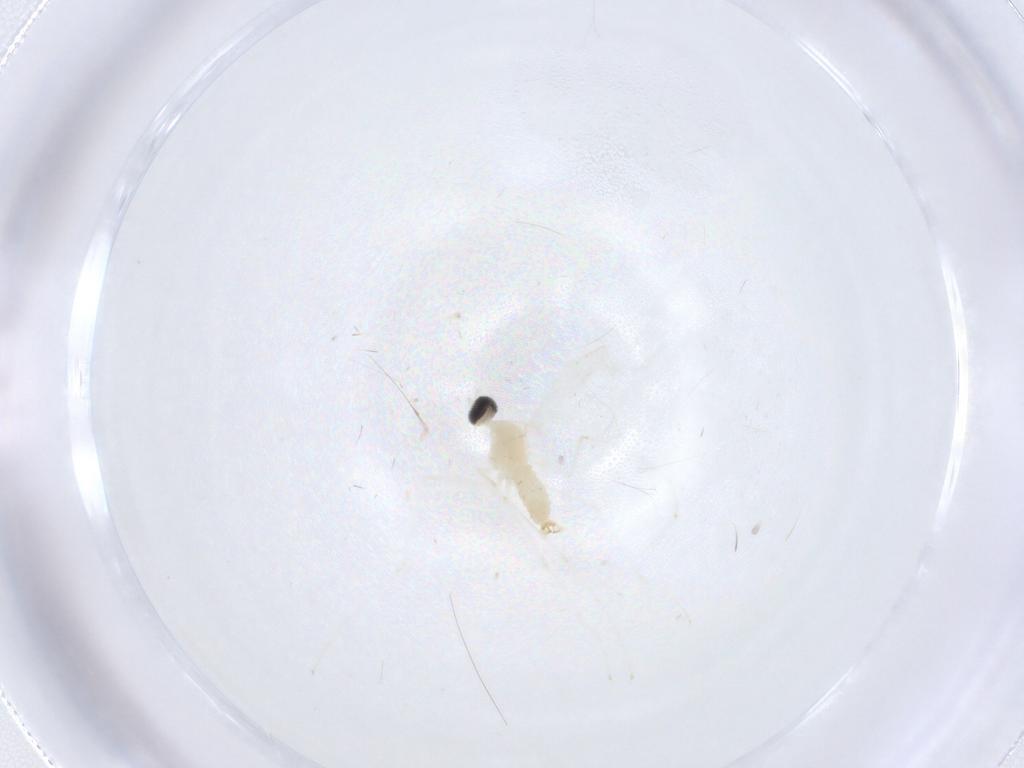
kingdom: Animalia
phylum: Arthropoda
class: Insecta
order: Diptera
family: Cecidomyiidae
